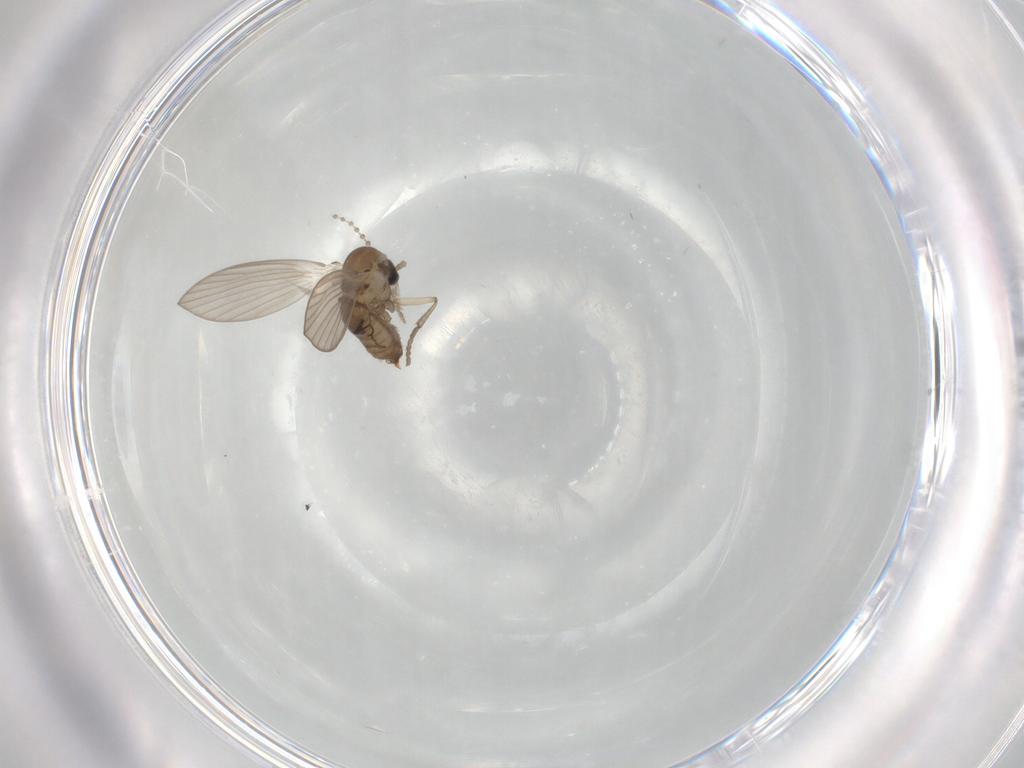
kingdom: Animalia
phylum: Arthropoda
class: Insecta
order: Diptera
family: Psychodidae
